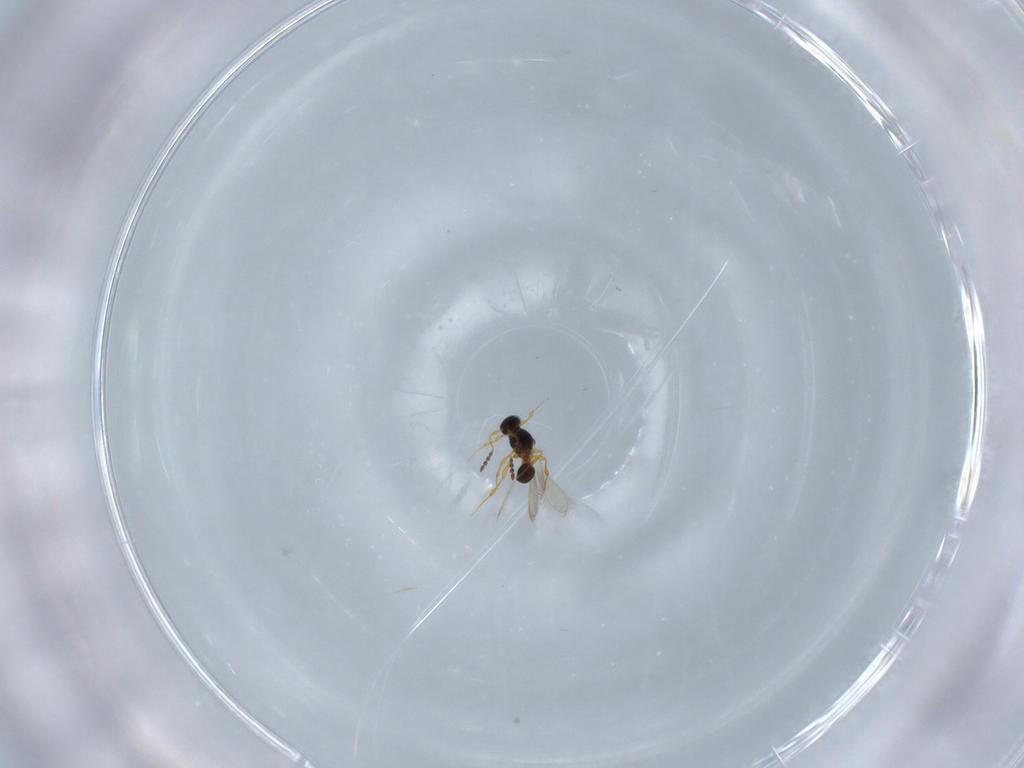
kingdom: Animalia
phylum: Arthropoda
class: Insecta
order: Hymenoptera
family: Platygastridae
